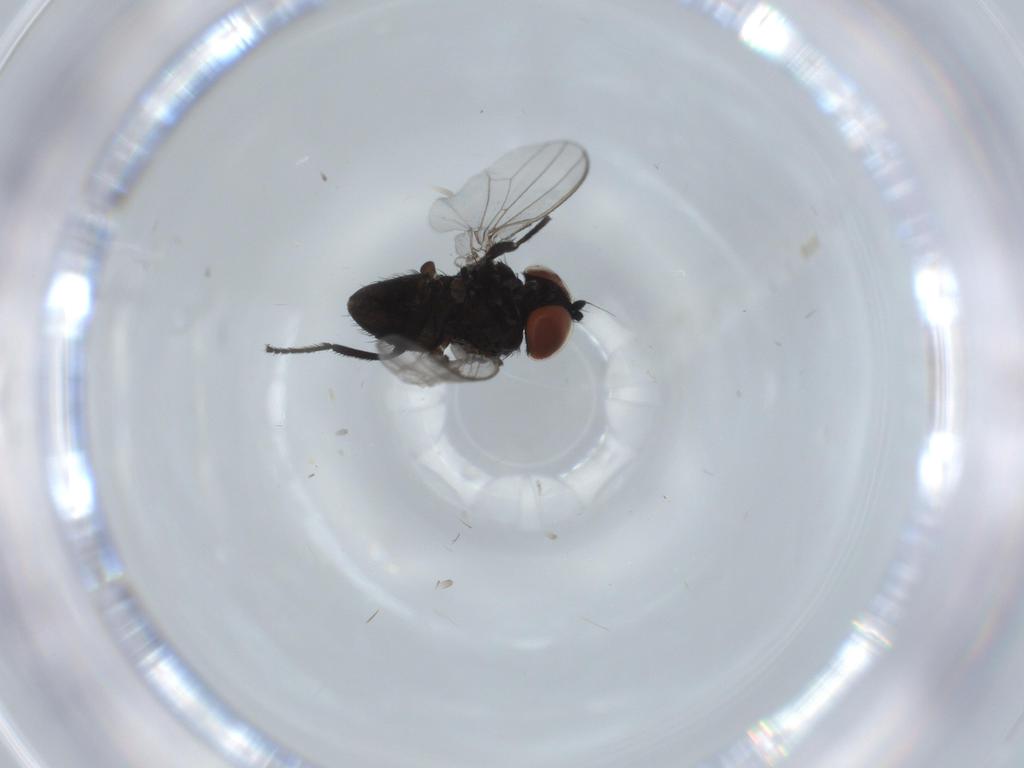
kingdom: Animalia
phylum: Arthropoda
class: Insecta
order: Diptera
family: Milichiidae
